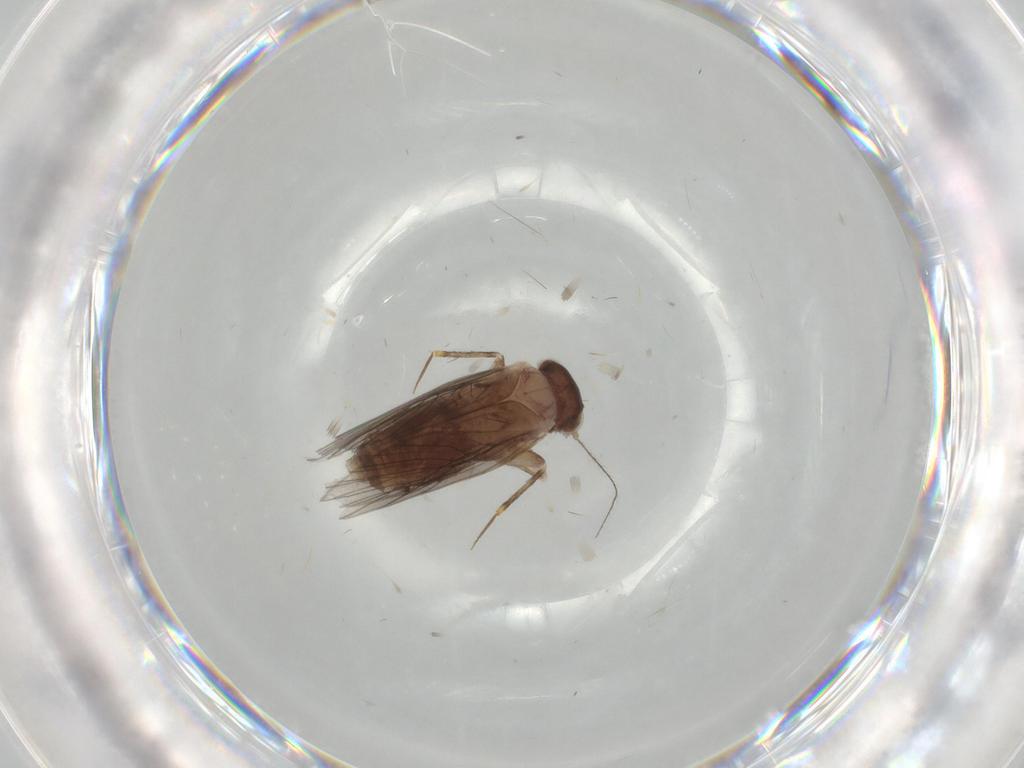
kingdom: Animalia
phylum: Arthropoda
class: Insecta
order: Psocodea
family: Lepidopsocidae
